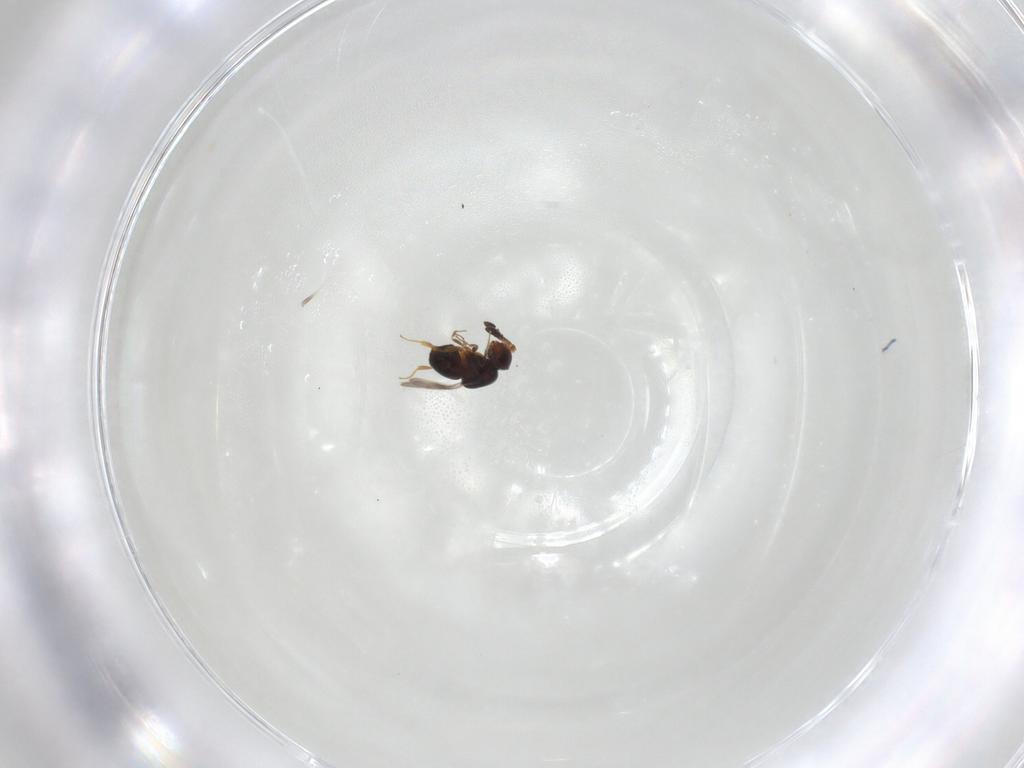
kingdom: Animalia
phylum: Arthropoda
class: Insecta
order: Hymenoptera
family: Ceraphronidae
